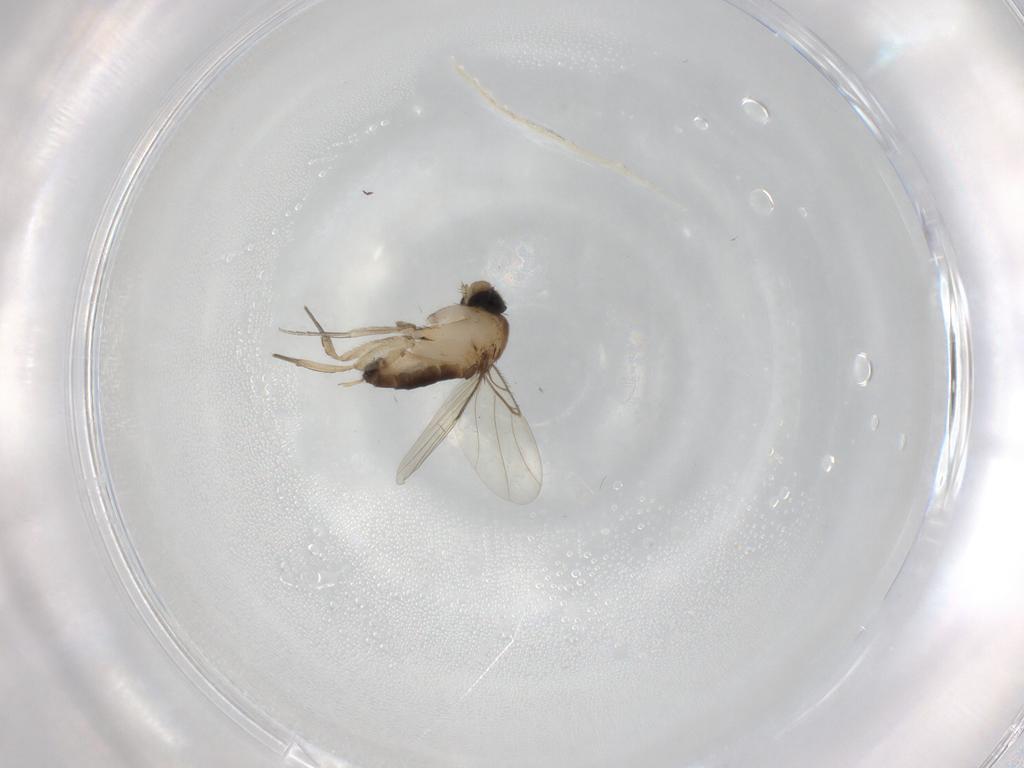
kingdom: Animalia
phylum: Arthropoda
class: Insecta
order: Diptera
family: Phoridae
